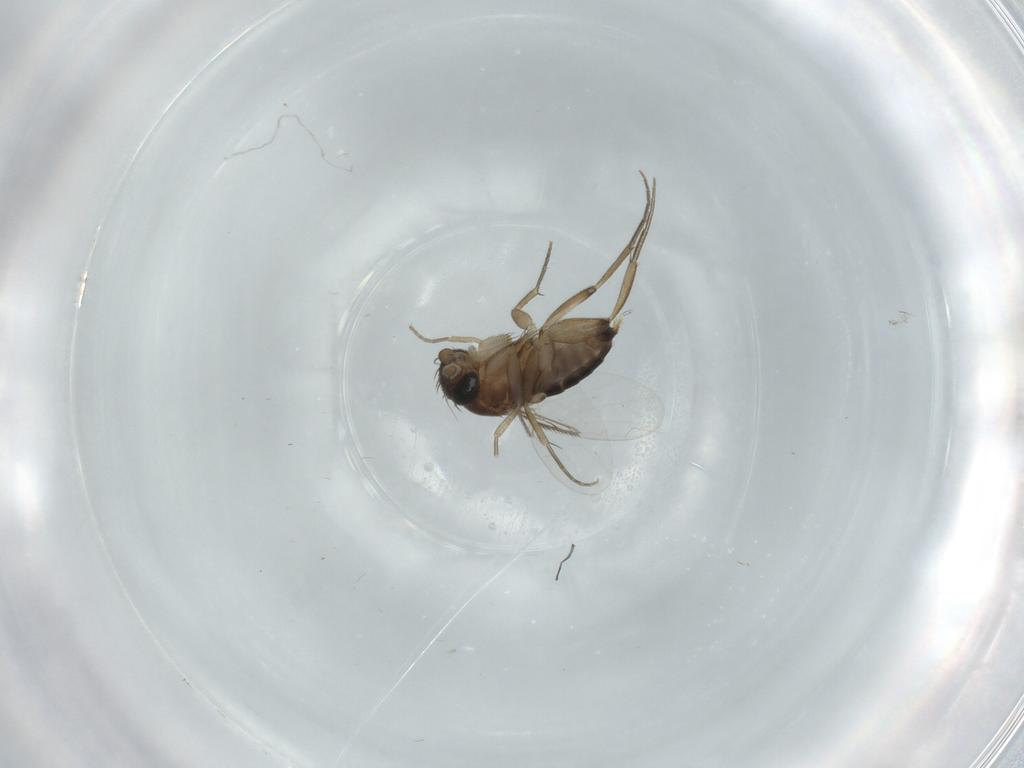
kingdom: Animalia
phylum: Arthropoda
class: Insecta
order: Diptera
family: Phoridae
